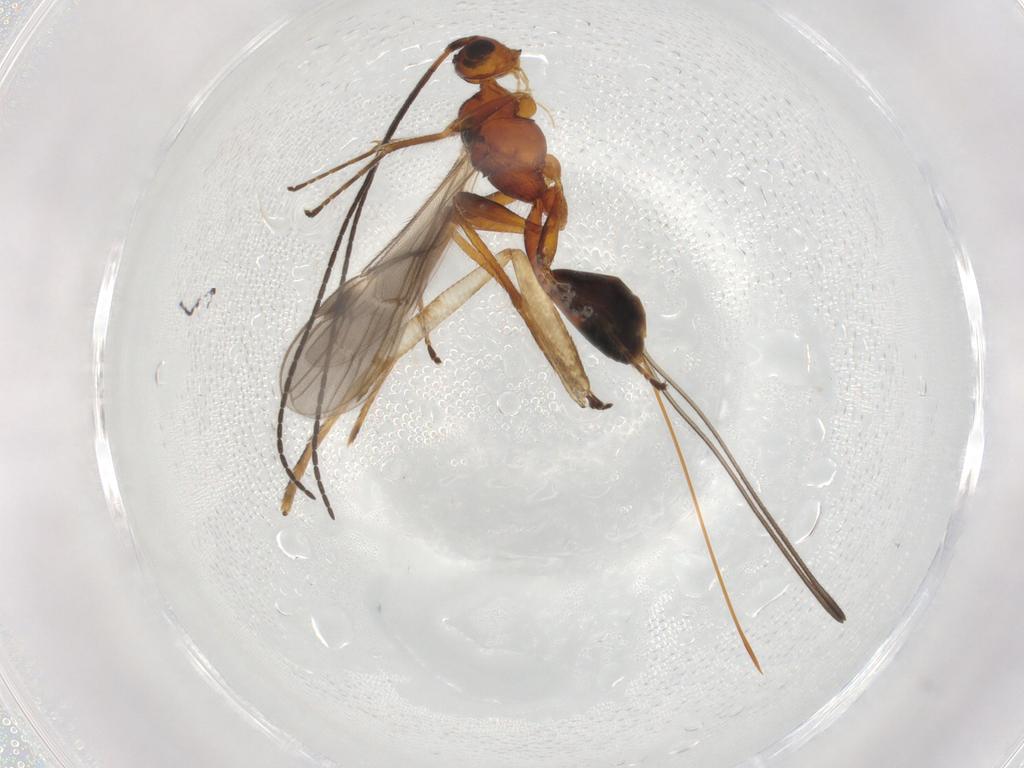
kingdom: Animalia
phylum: Arthropoda
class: Insecta
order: Hymenoptera
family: Braconidae
